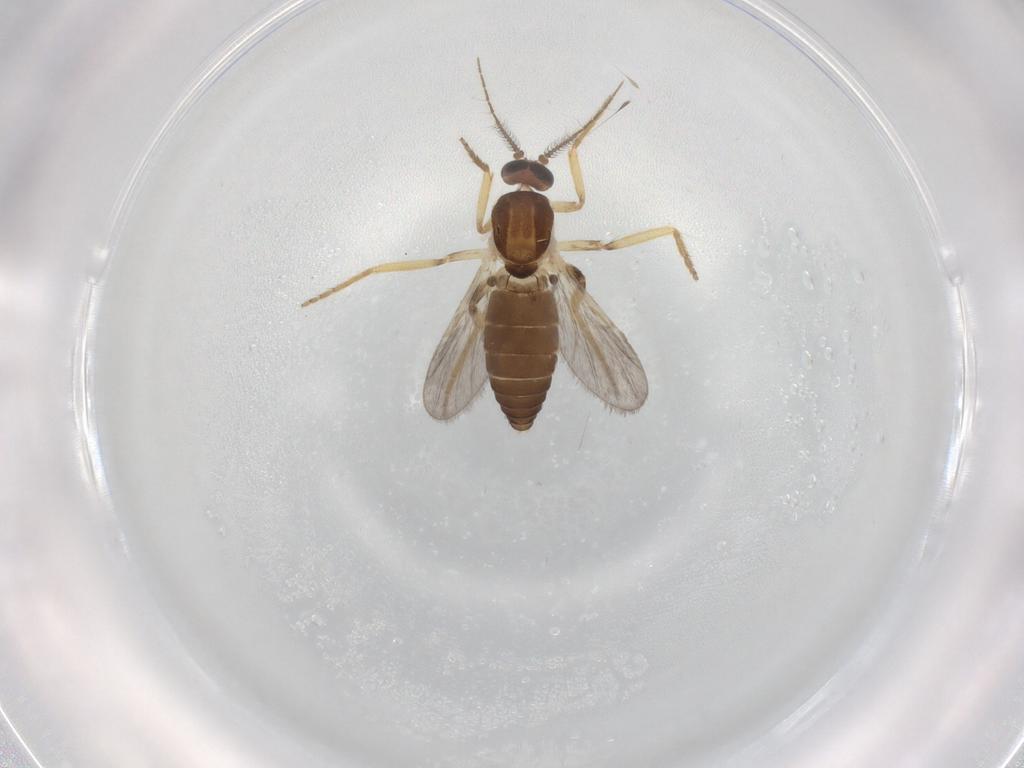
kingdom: Animalia
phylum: Arthropoda
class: Insecta
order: Diptera
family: Ceratopogonidae
